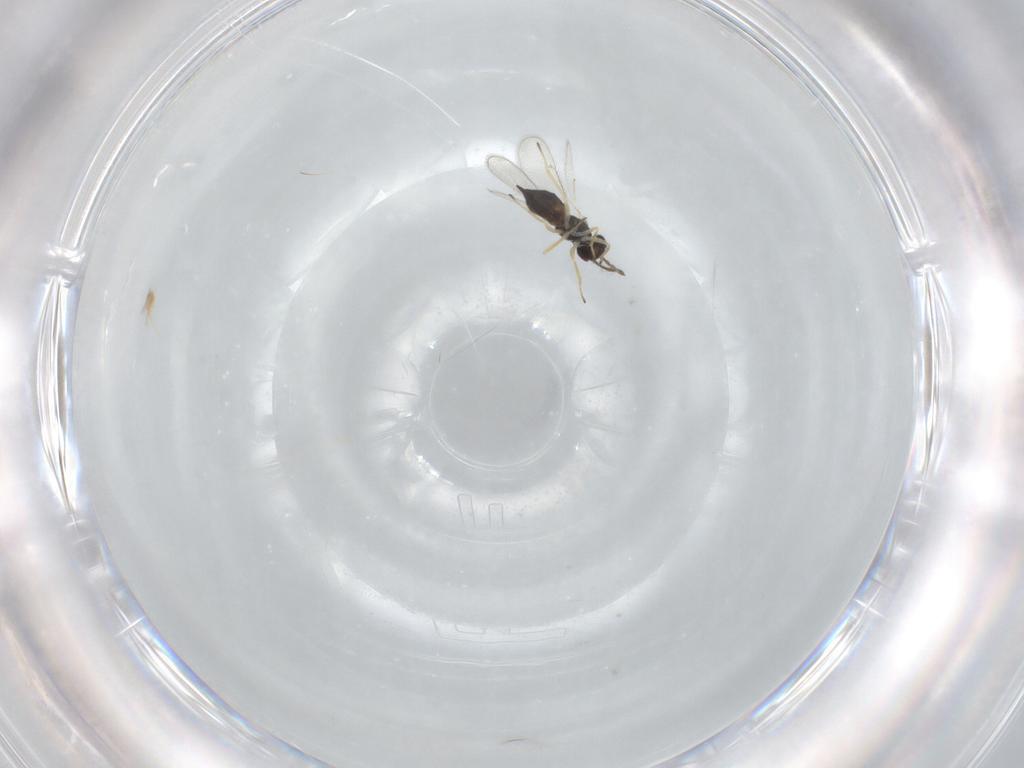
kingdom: Animalia
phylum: Arthropoda
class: Insecta
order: Hymenoptera
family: Eulophidae
